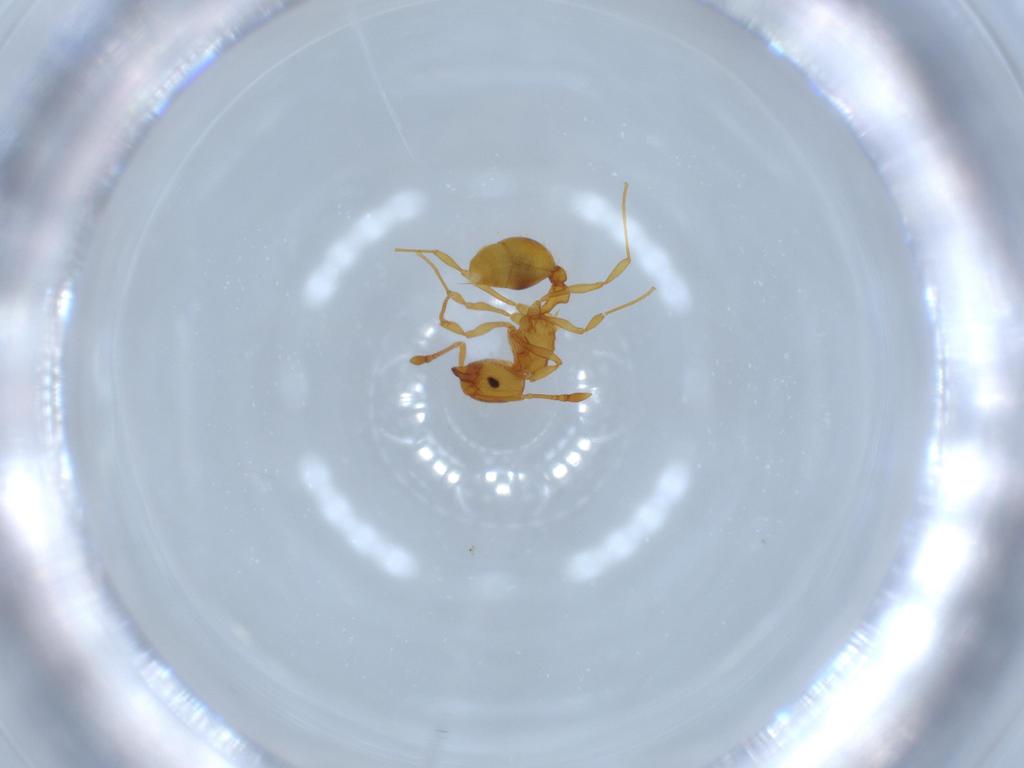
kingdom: Animalia
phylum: Arthropoda
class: Insecta
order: Hymenoptera
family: Formicidae
